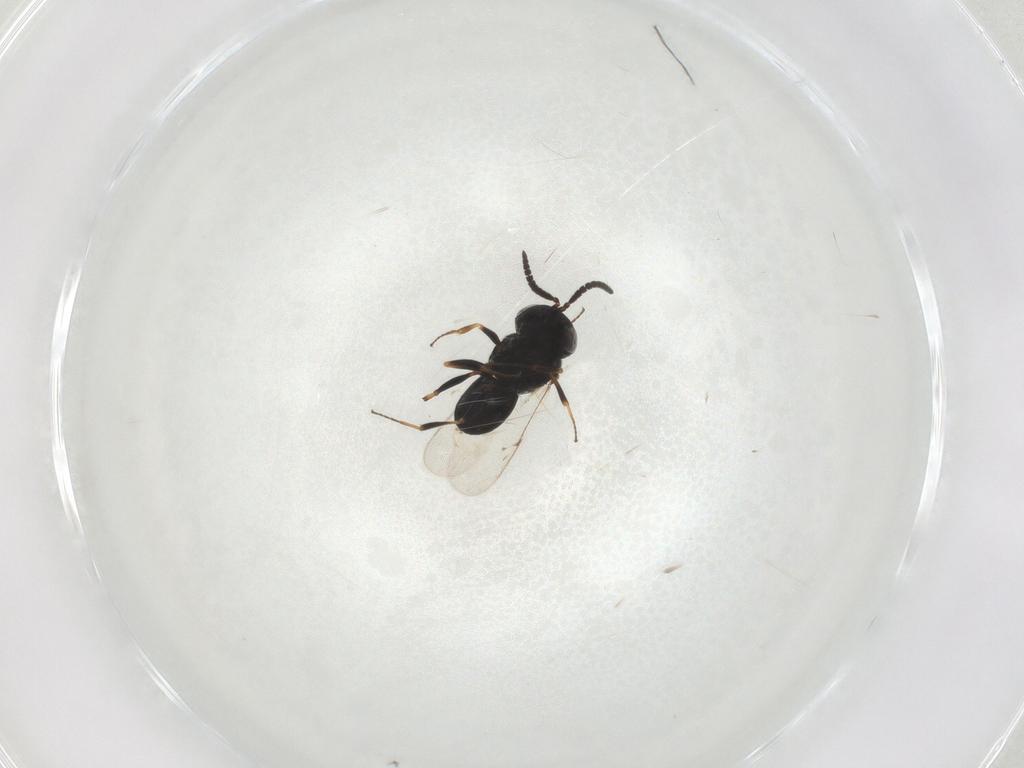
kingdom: Animalia
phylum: Arthropoda
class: Insecta
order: Hymenoptera
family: Scelionidae
